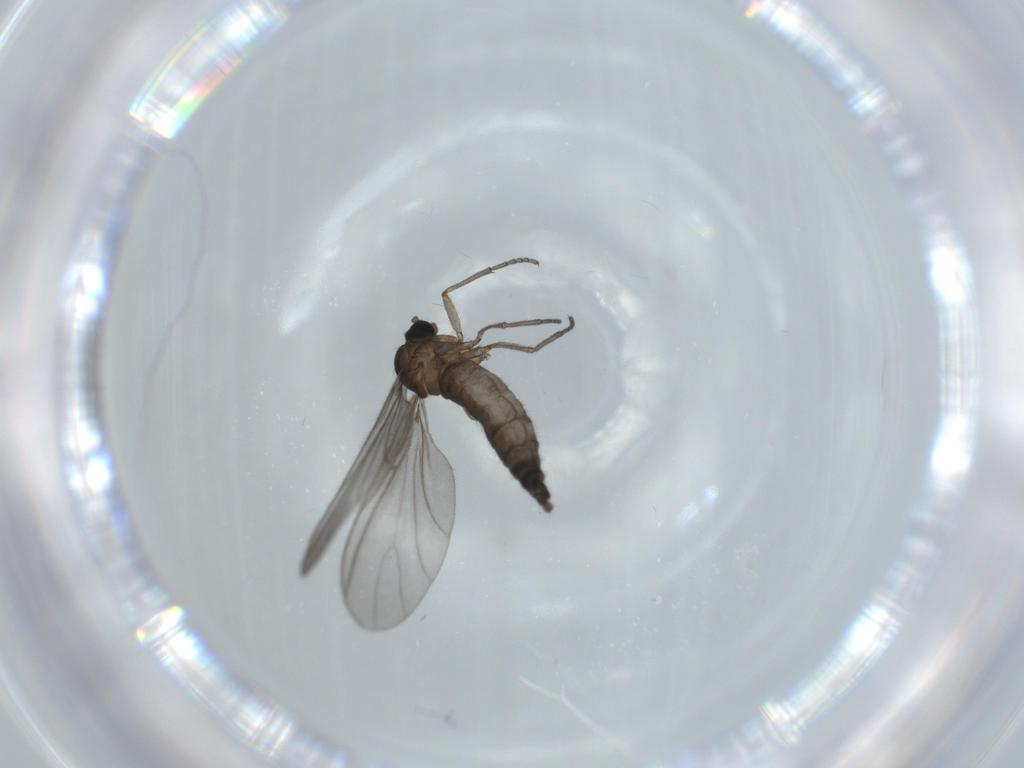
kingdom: Animalia
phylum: Arthropoda
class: Insecta
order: Diptera
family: Sciaridae
